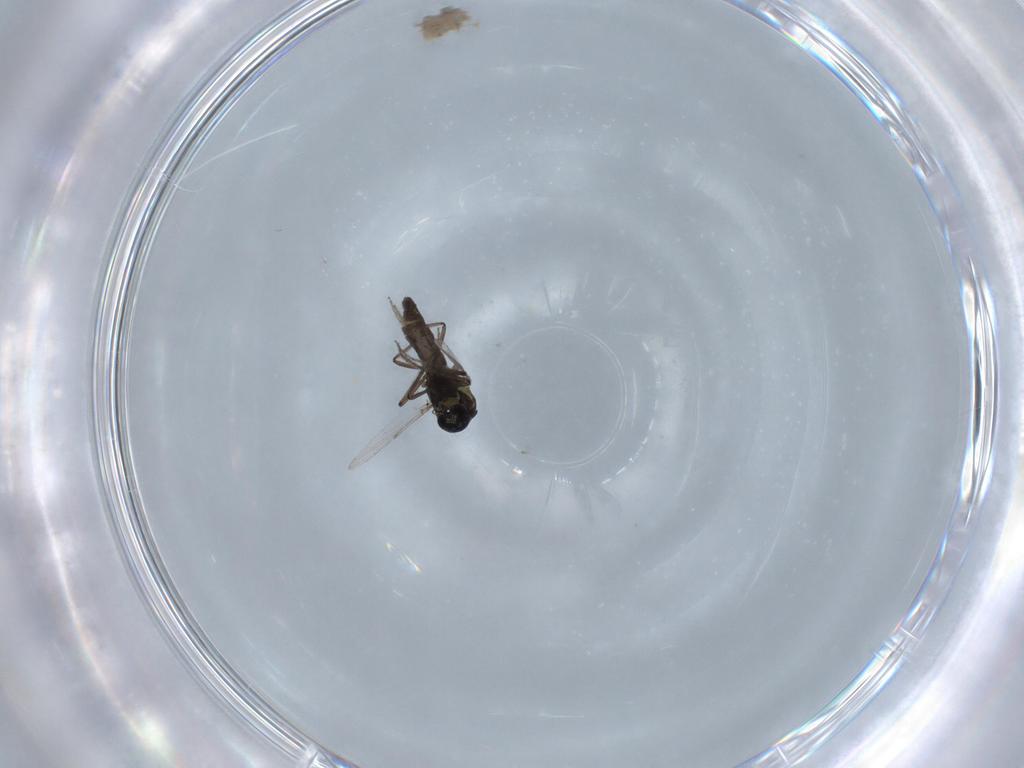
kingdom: Animalia
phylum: Arthropoda
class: Insecta
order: Diptera
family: Ceratopogonidae
